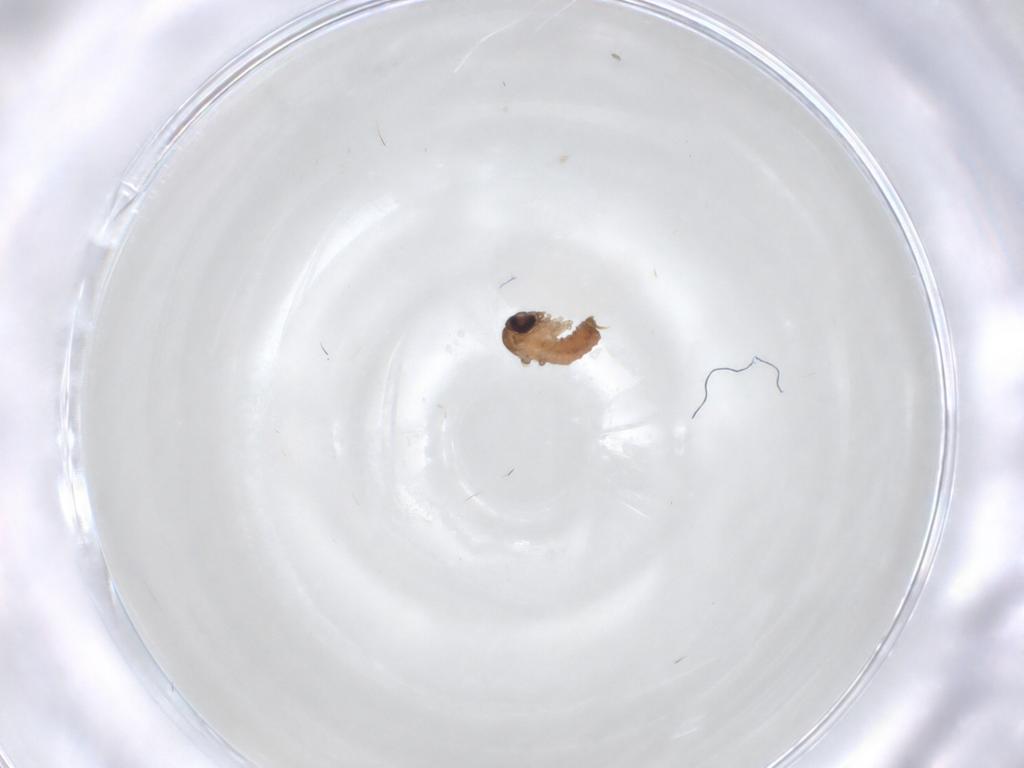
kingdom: Animalia
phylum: Arthropoda
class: Insecta
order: Diptera
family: Psychodidae
